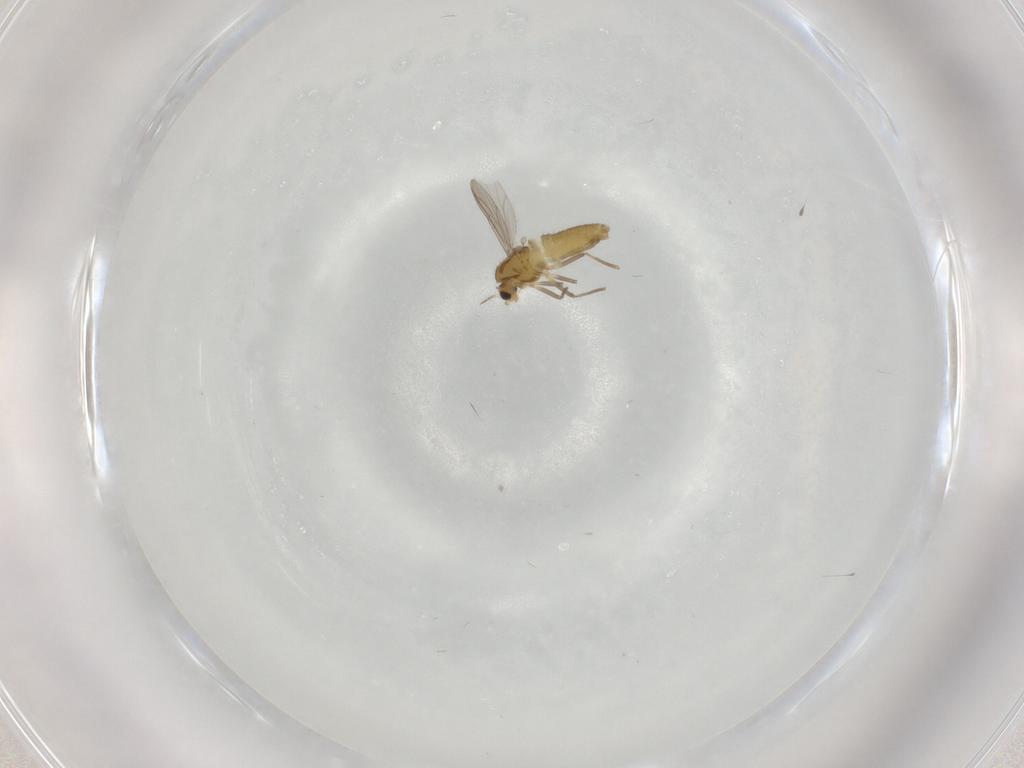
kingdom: Animalia
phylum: Arthropoda
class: Insecta
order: Diptera
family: Chironomidae
